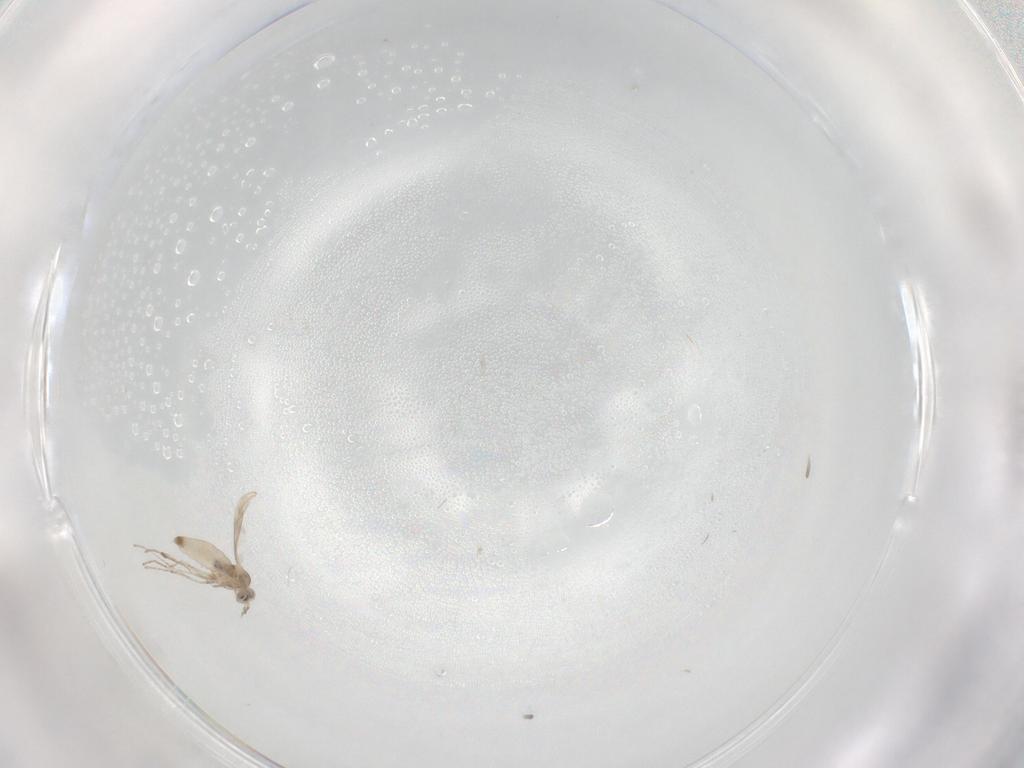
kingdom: Animalia
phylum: Arthropoda
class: Insecta
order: Diptera
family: Cecidomyiidae
